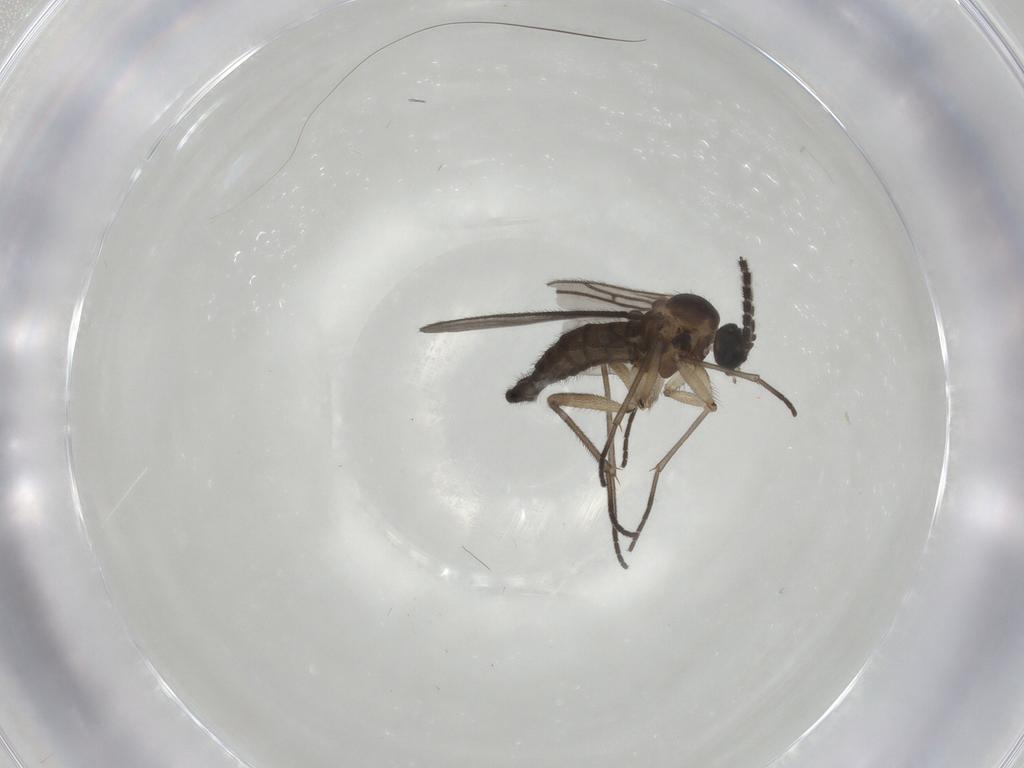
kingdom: Animalia
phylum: Arthropoda
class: Insecta
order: Diptera
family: Sciaridae
